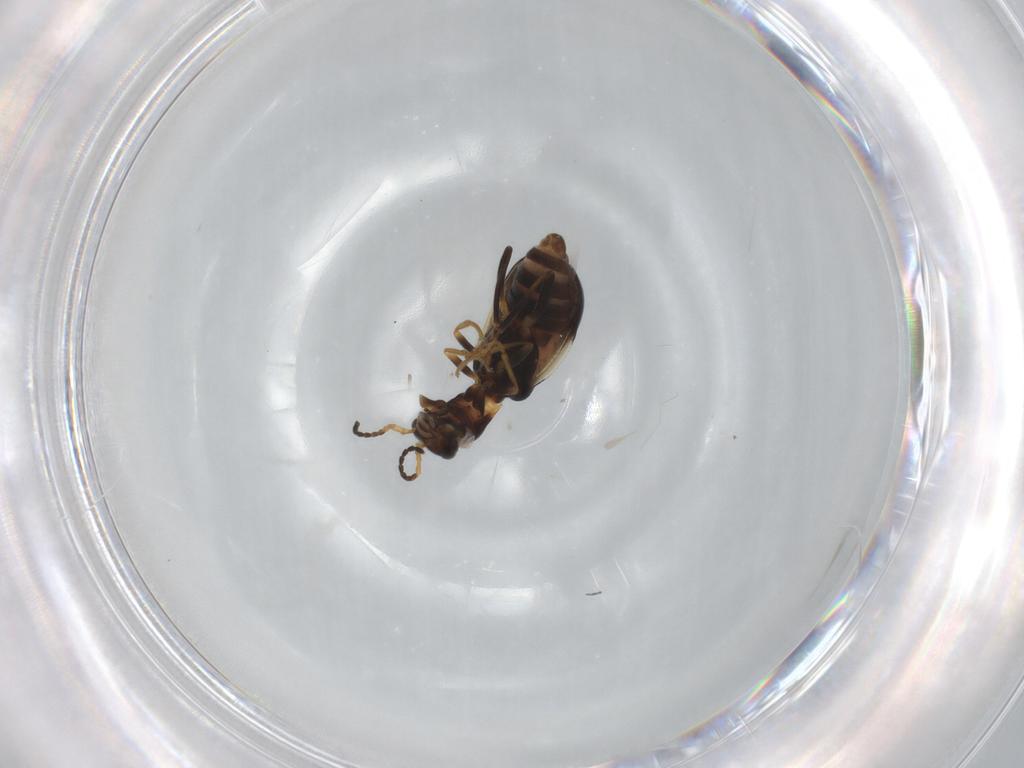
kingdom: Animalia
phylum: Arthropoda
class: Insecta
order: Coleoptera
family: Melyridae
